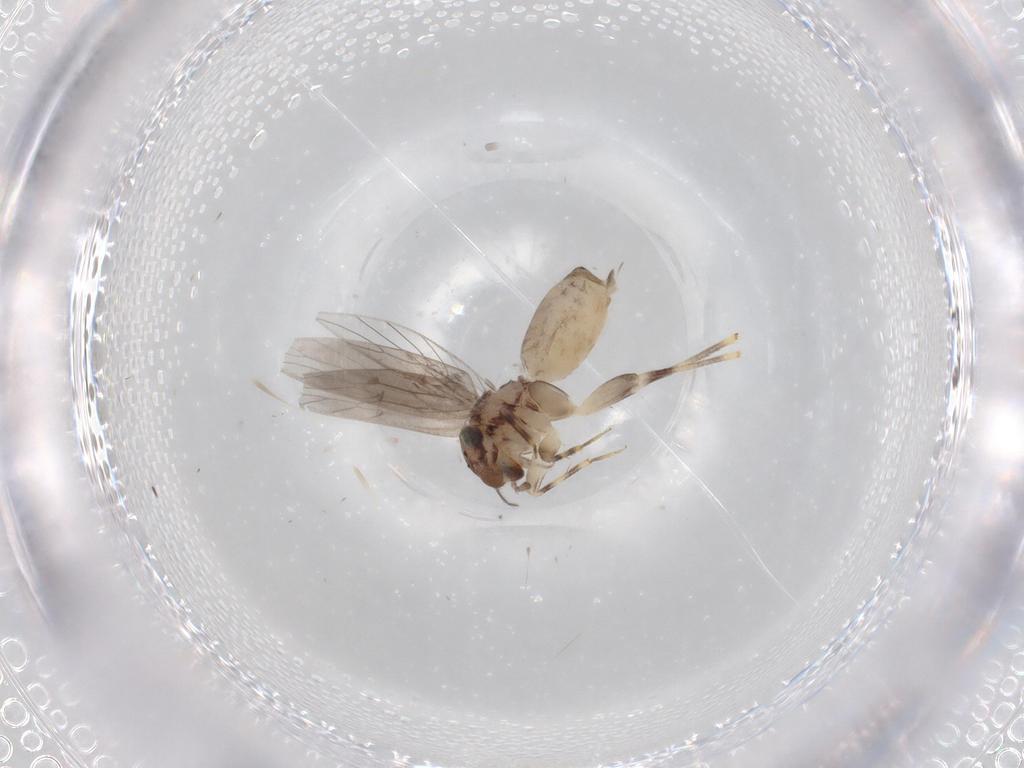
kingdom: Animalia
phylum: Arthropoda
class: Insecta
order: Psocodea
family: Lepidopsocidae
